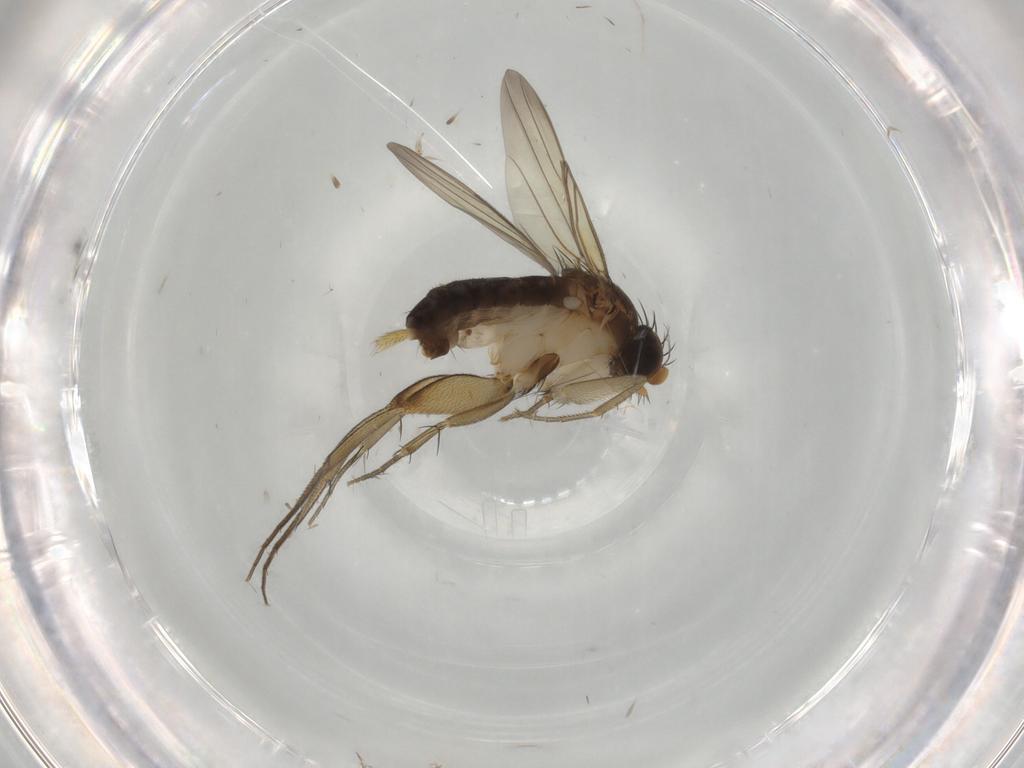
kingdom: Animalia
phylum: Arthropoda
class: Insecta
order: Diptera
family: Phoridae
